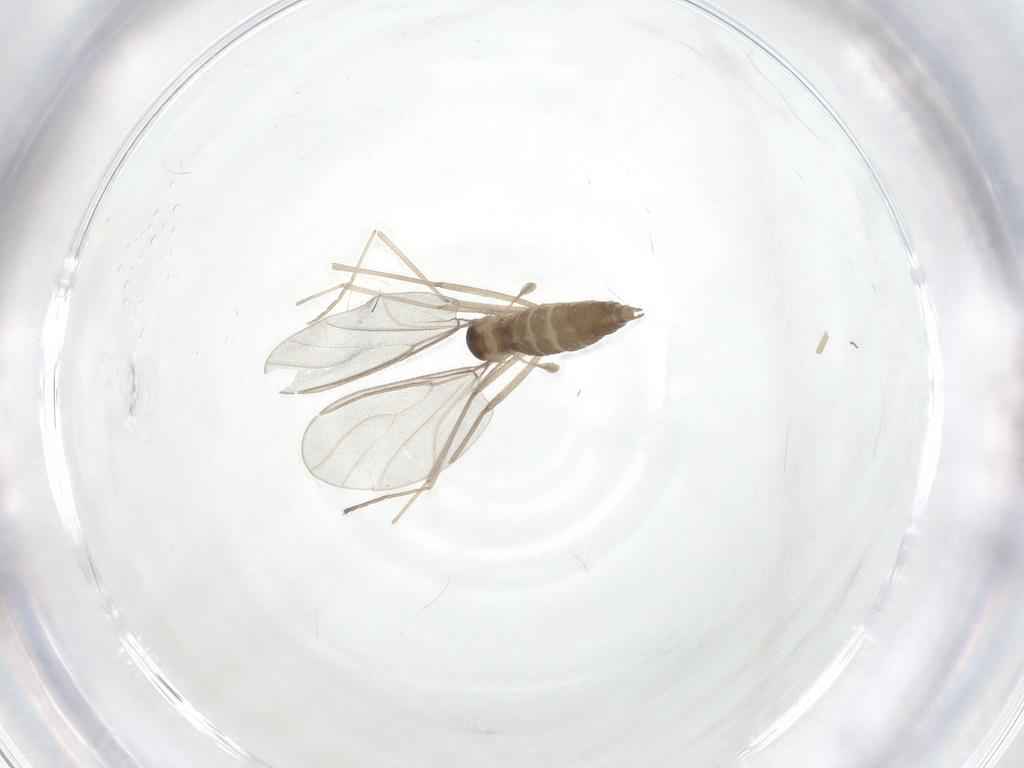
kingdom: Animalia
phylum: Arthropoda
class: Insecta
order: Diptera
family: Cecidomyiidae
